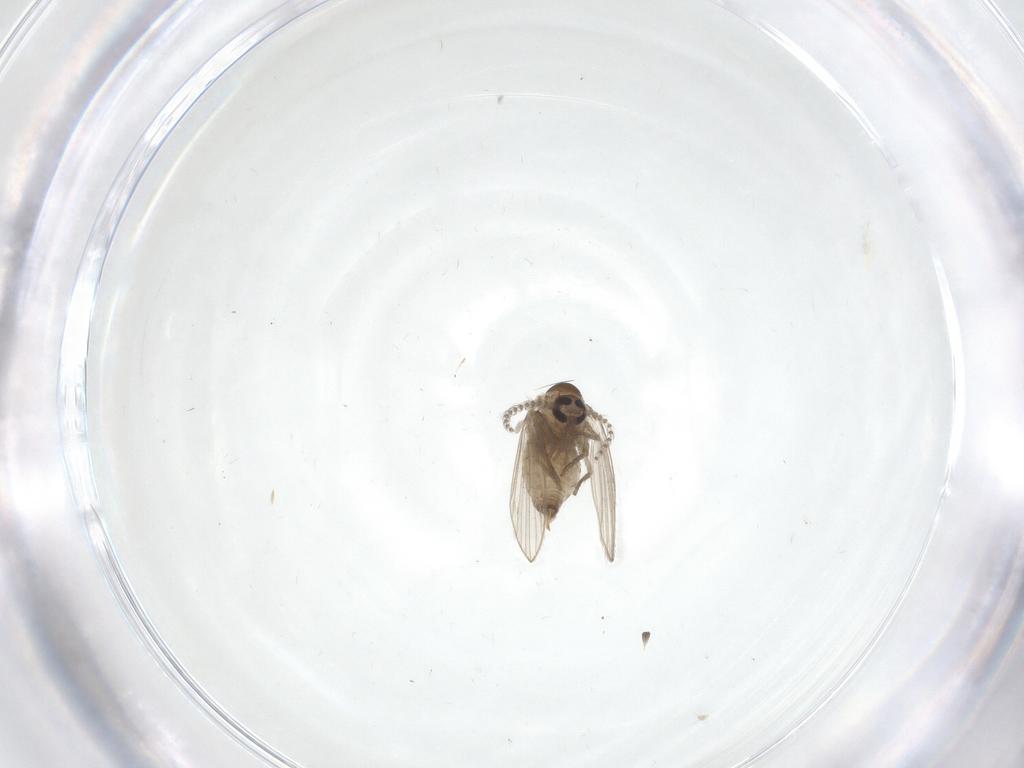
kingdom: Animalia
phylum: Arthropoda
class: Insecta
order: Diptera
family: Psychodidae
